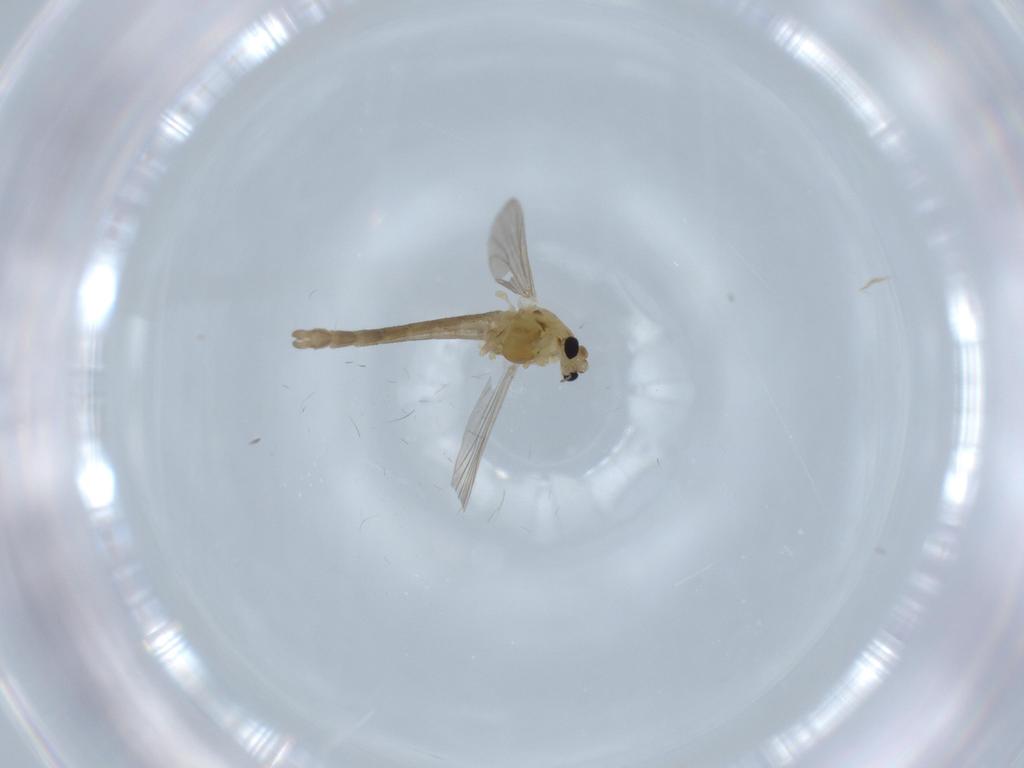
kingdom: Animalia
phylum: Arthropoda
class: Insecta
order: Diptera
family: Chironomidae
